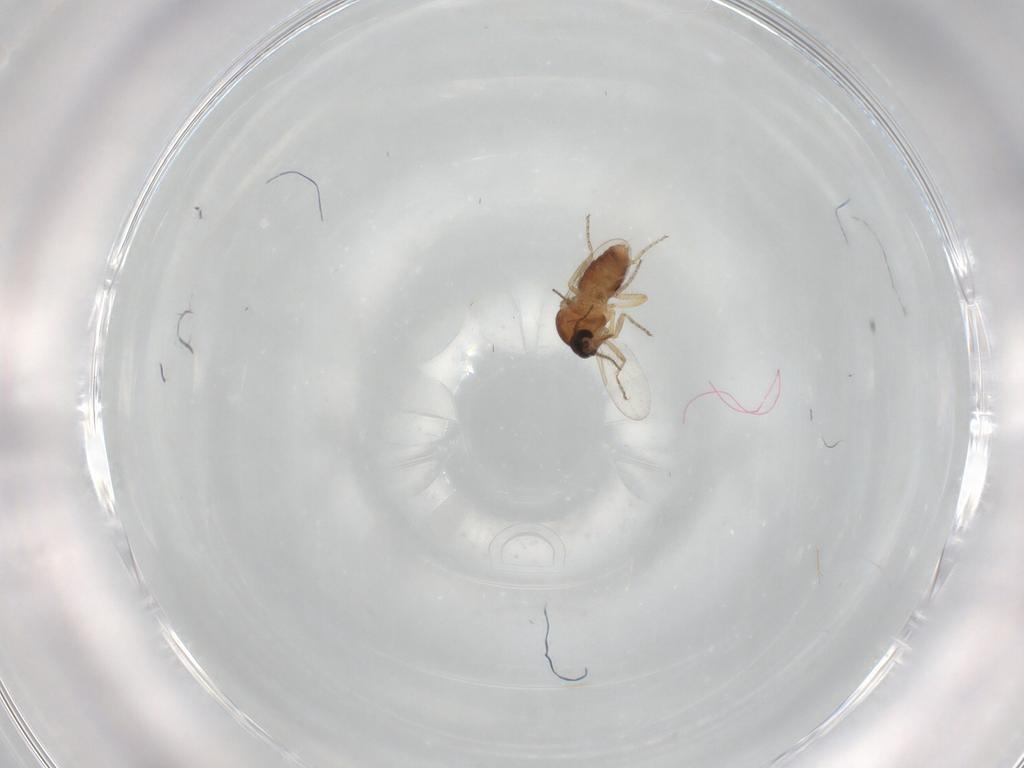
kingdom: Animalia
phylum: Arthropoda
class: Insecta
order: Diptera
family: Ceratopogonidae
